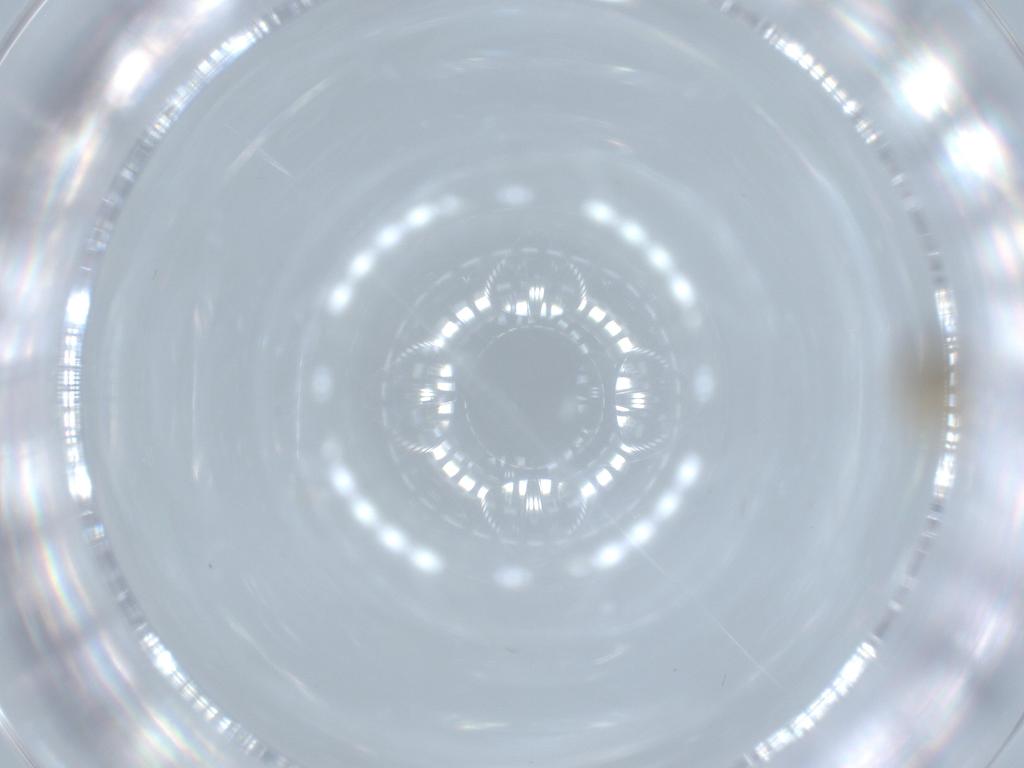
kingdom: Animalia
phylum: Arthropoda
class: Insecta
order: Diptera
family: Ceratopogonidae
